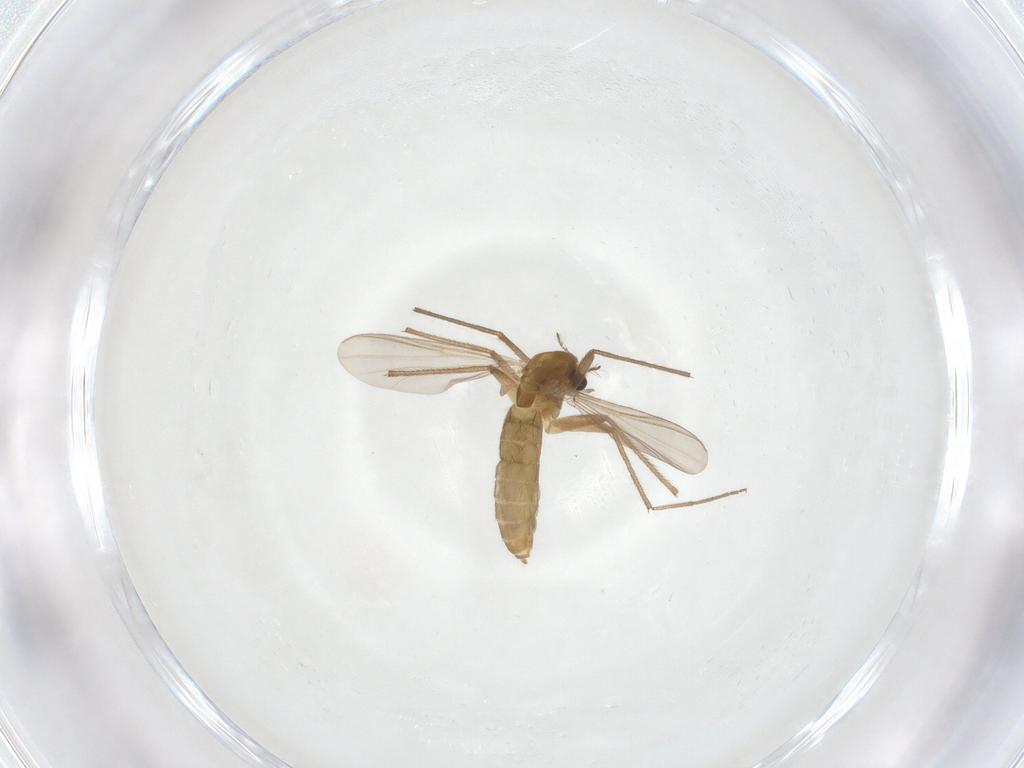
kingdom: Animalia
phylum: Arthropoda
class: Insecta
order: Diptera
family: Chironomidae
